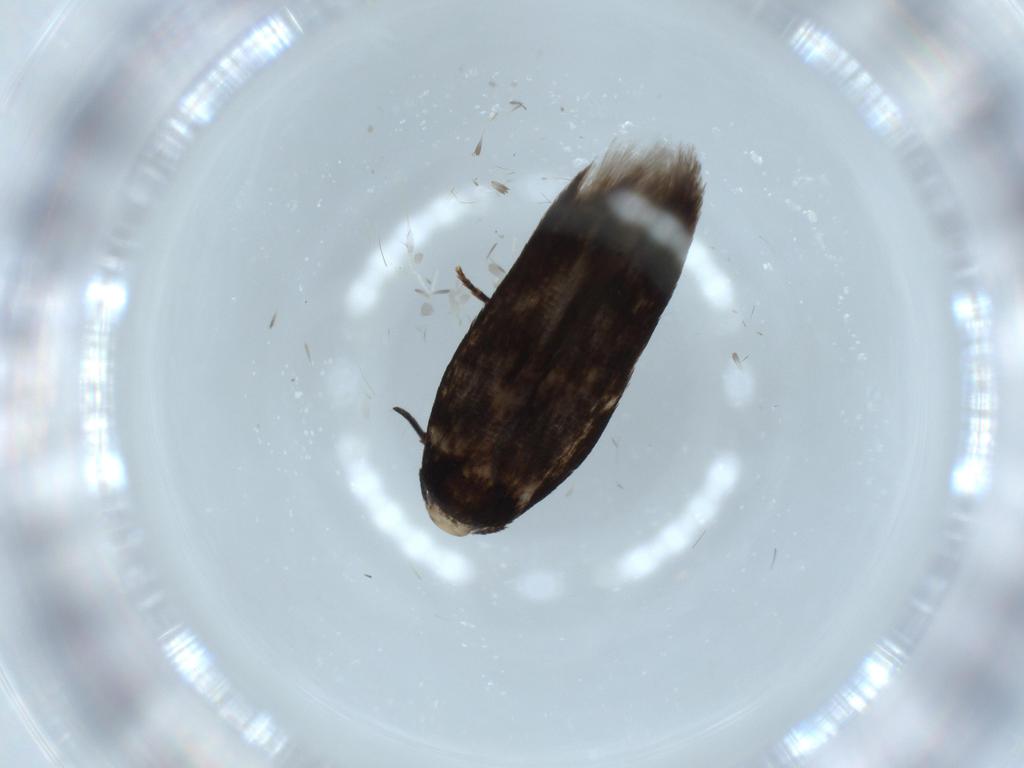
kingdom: Animalia
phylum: Arthropoda
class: Insecta
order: Lepidoptera
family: Gracillariidae
